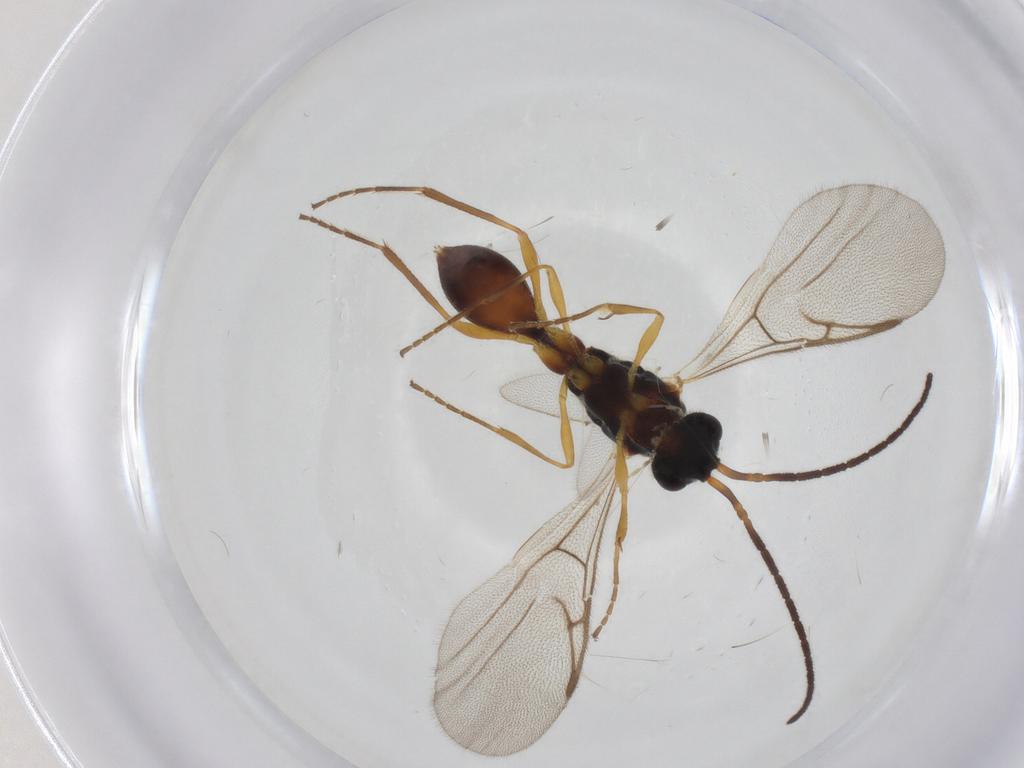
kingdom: Animalia
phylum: Arthropoda
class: Insecta
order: Hymenoptera
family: Diapriidae
